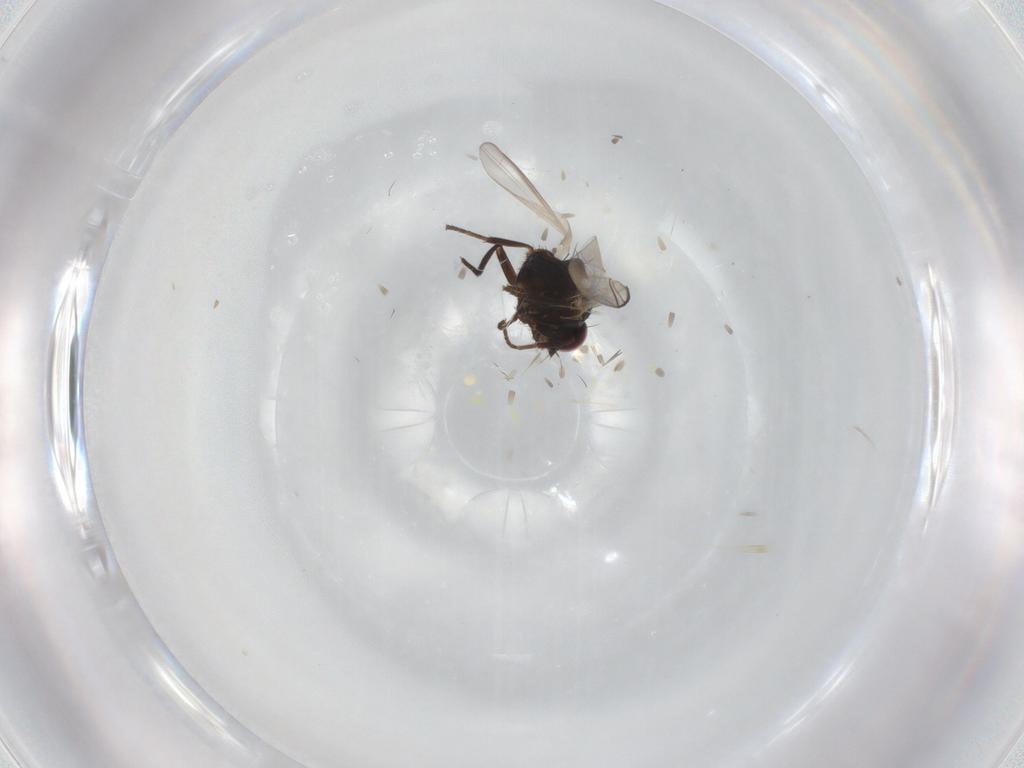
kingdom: Animalia
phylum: Arthropoda
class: Insecta
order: Diptera
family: Agromyzidae
